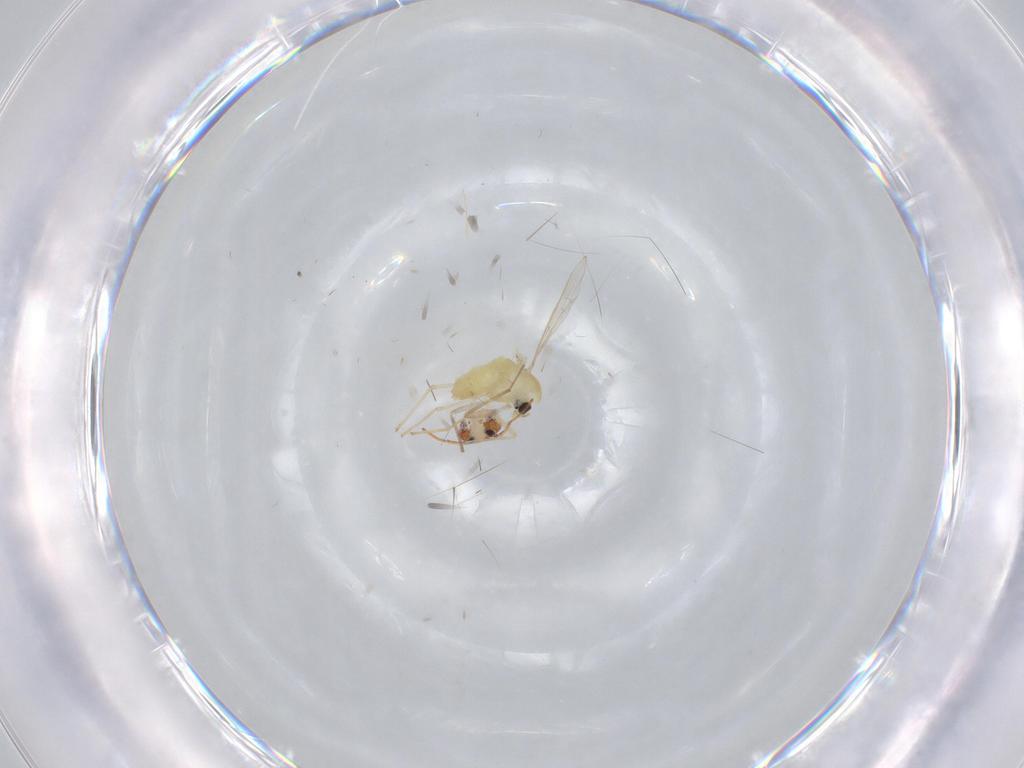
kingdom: Animalia
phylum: Arthropoda
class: Insecta
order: Diptera
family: Chironomidae
